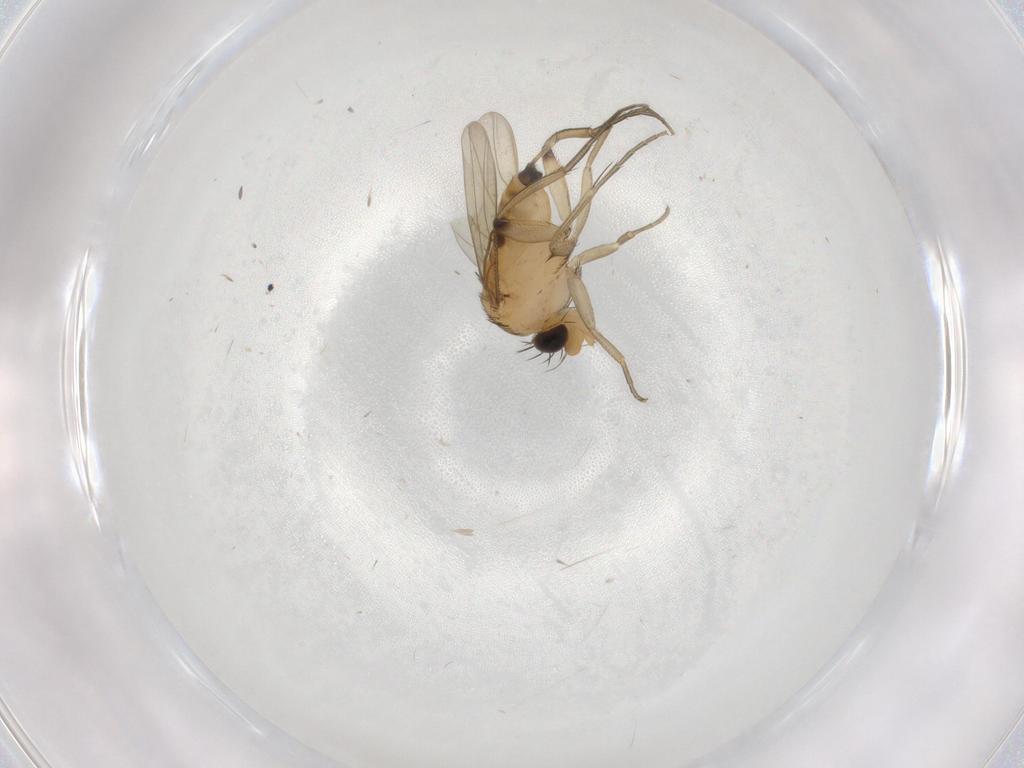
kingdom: Animalia
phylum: Arthropoda
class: Insecta
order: Diptera
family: Phoridae
